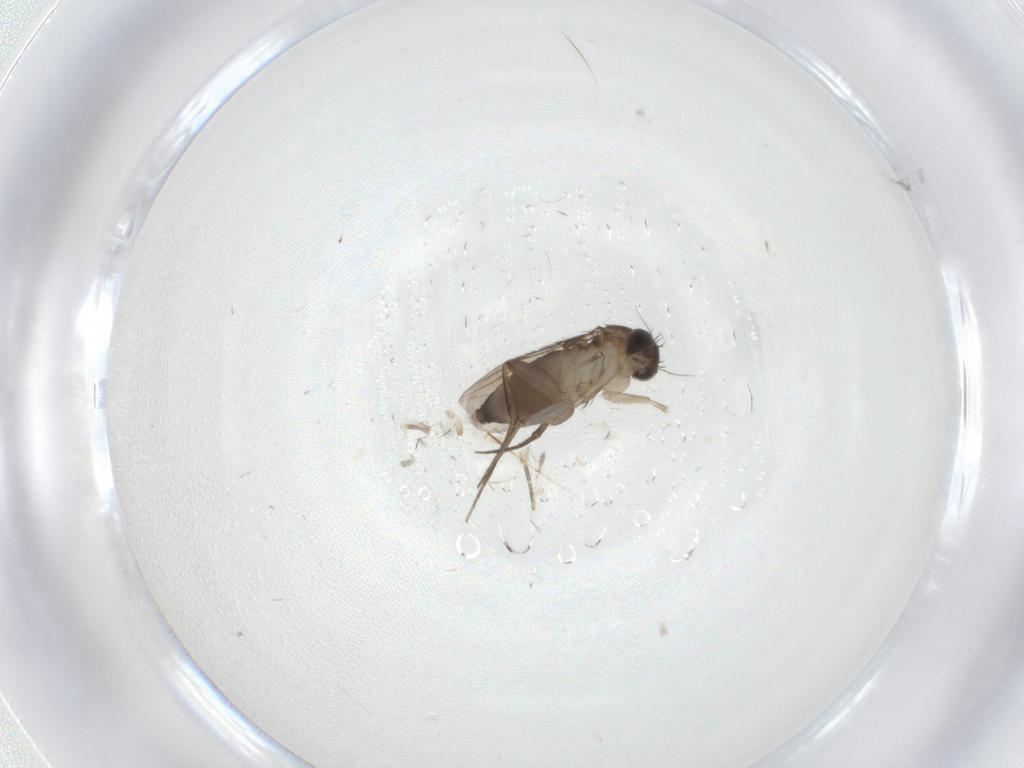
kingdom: Animalia
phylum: Arthropoda
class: Insecta
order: Diptera
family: Phoridae
